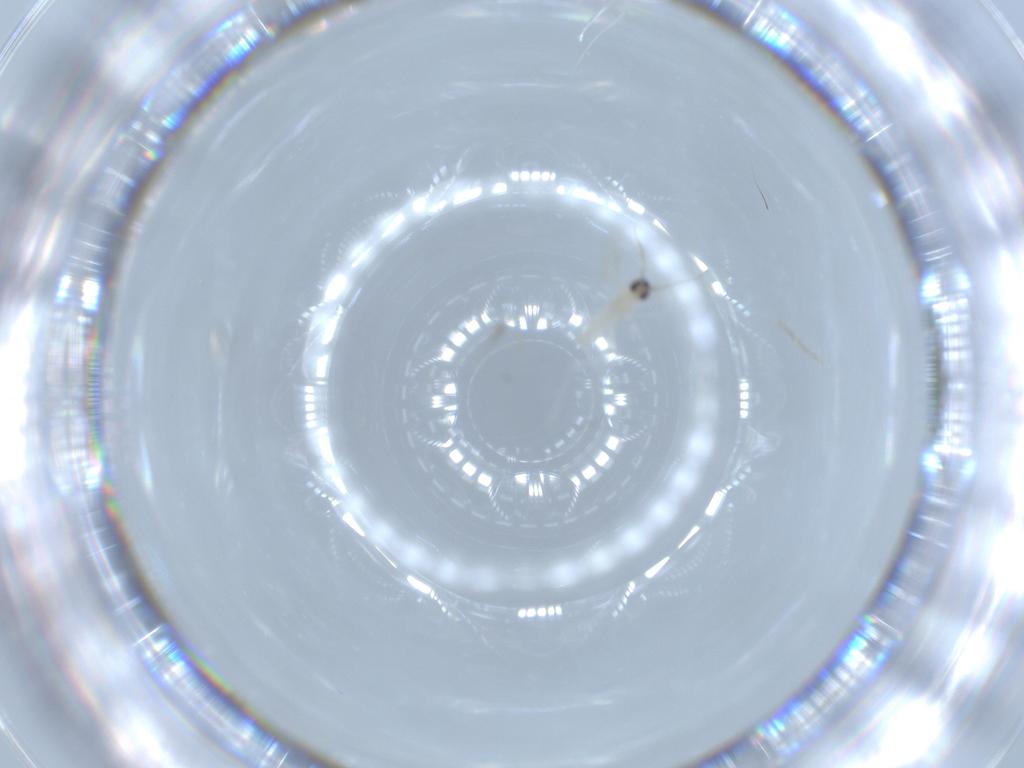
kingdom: Animalia
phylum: Arthropoda
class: Insecta
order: Diptera
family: Cecidomyiidae
